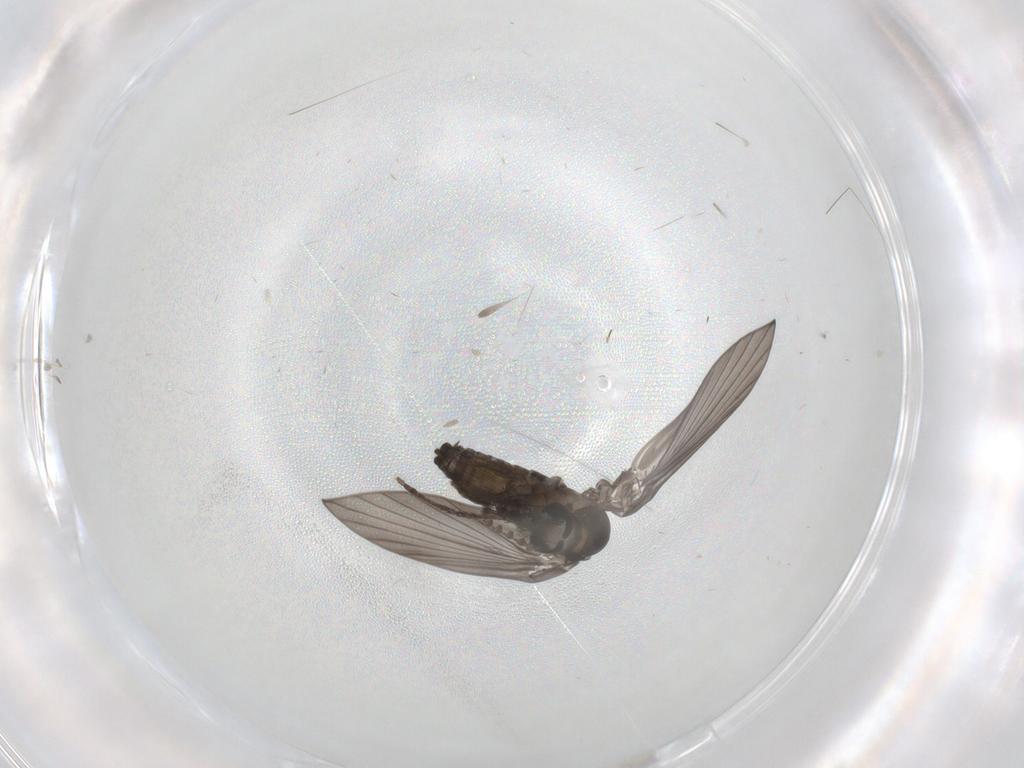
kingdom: Animalia
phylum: Arthropoda
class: Insecta
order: Diptera
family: Psychodidae
